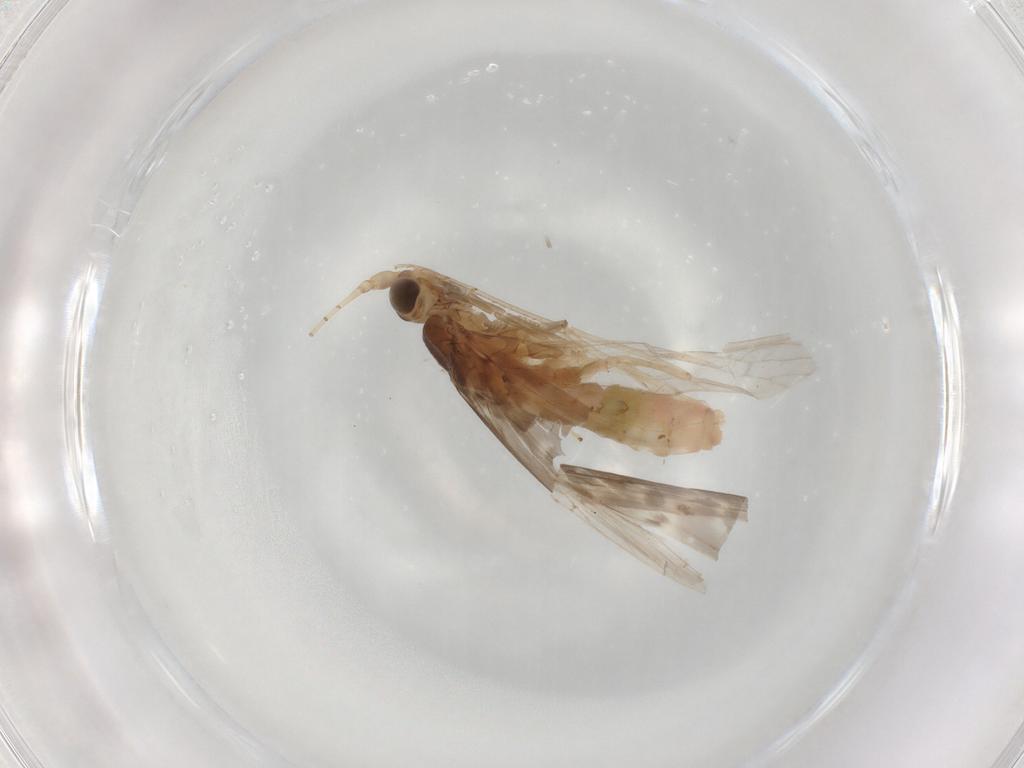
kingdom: Animalia
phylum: Arthropoda
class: Insecta
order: Trichoptera
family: Leptoceridae
